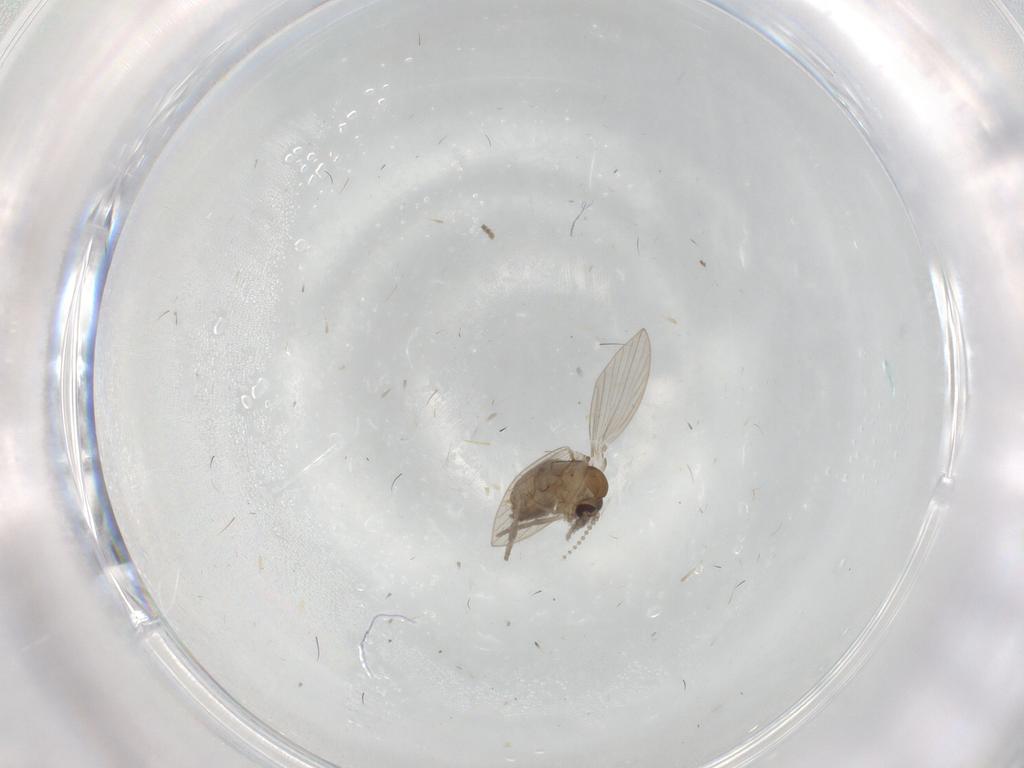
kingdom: Animalia
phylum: Arthropoda
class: Insecta
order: Diptera
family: Psychodidae
